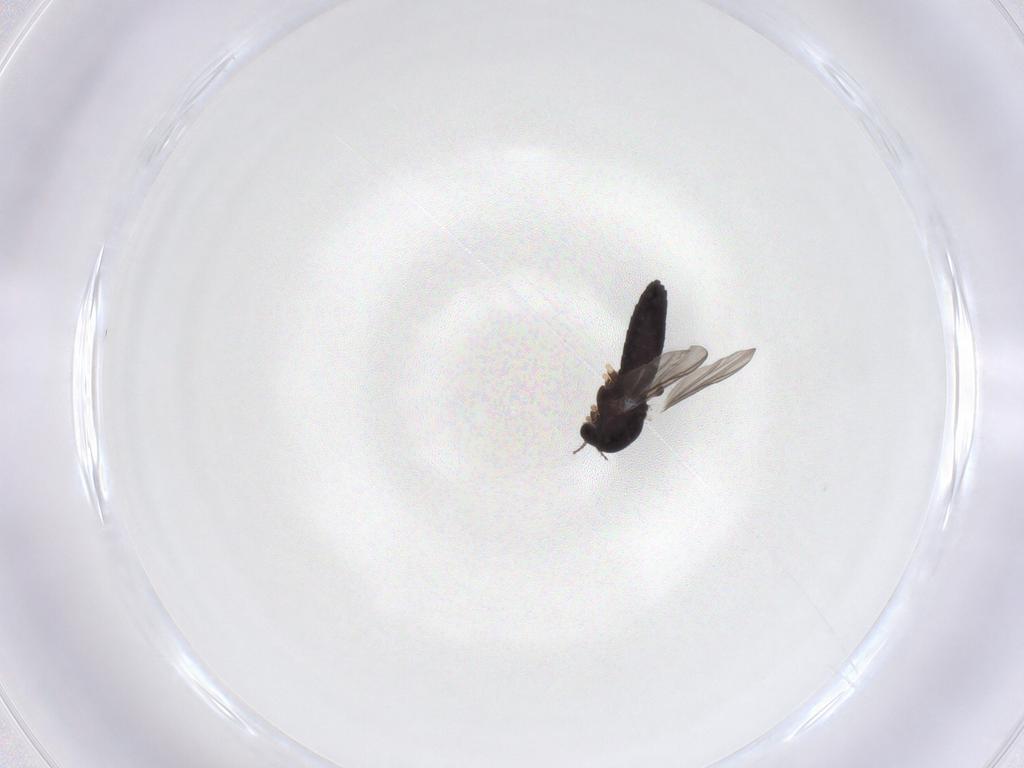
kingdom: Animalia
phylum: Arthropoda
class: Insecta
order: Diptera
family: Chironomidae
